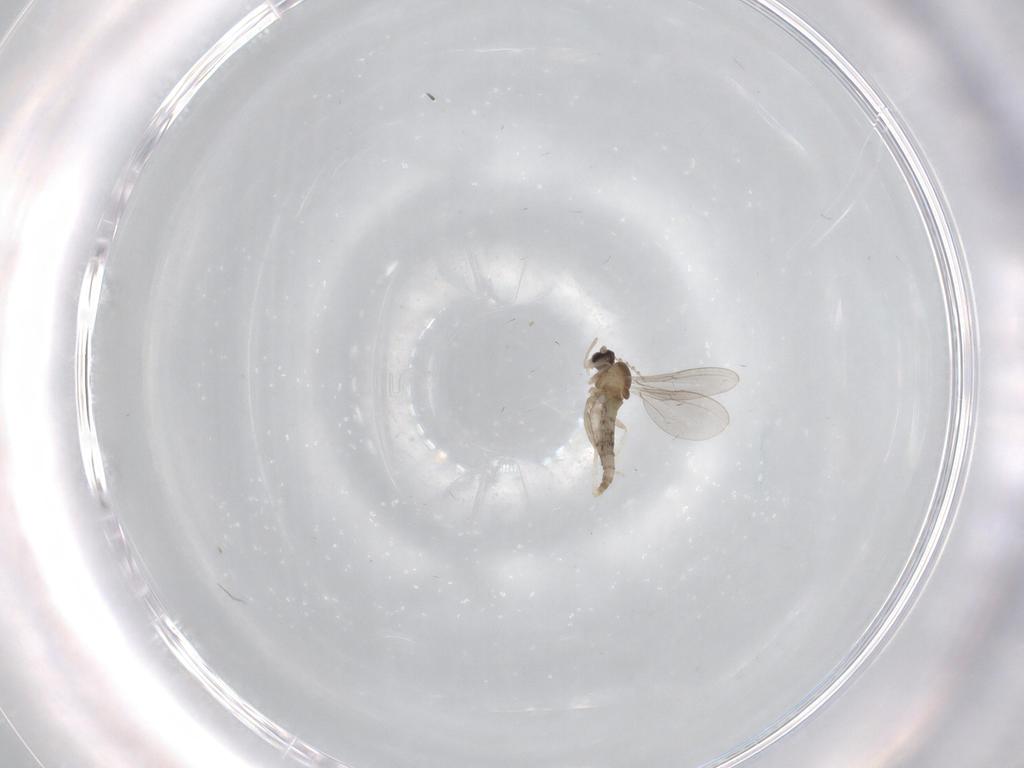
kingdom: Animalia
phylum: Arthropoda
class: Insecta
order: Diptera
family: Cecidomyiidae
